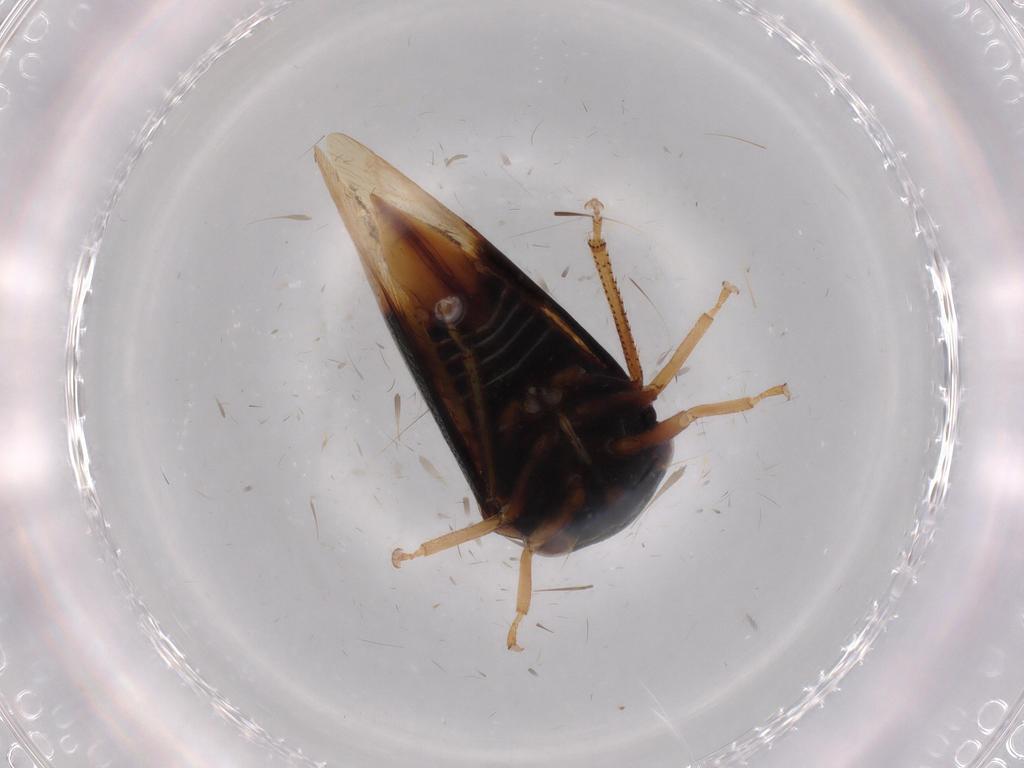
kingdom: Animalia
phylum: Arthropoda
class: Insecta
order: Hemiptera
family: Membracidae
